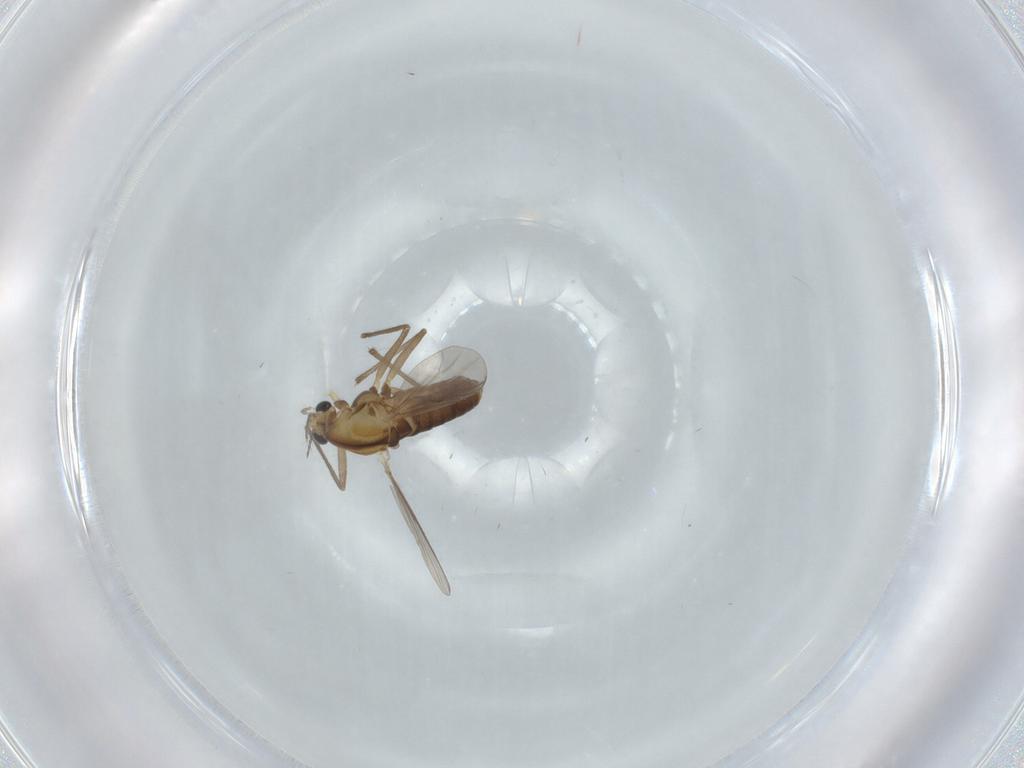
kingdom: Animalia
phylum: Arthropoda
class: Insecta
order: Diptera
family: Chironomidae
